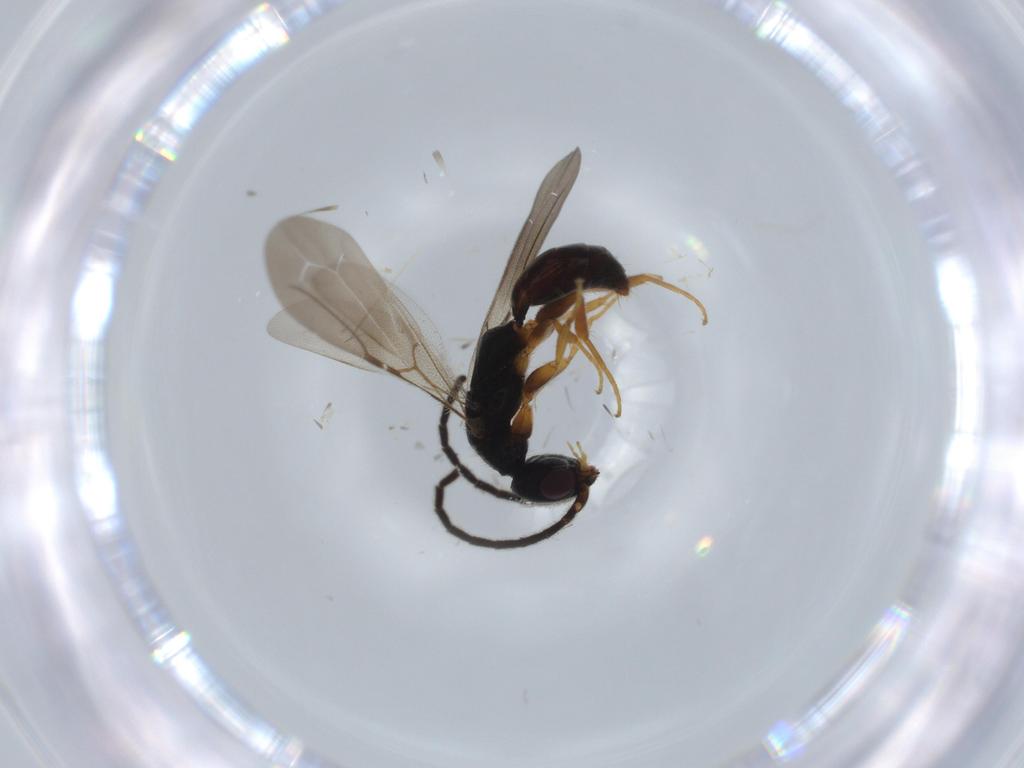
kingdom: Animalia
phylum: Arthropoda
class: Insecta
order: Hymenoptera
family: Bethylidae
